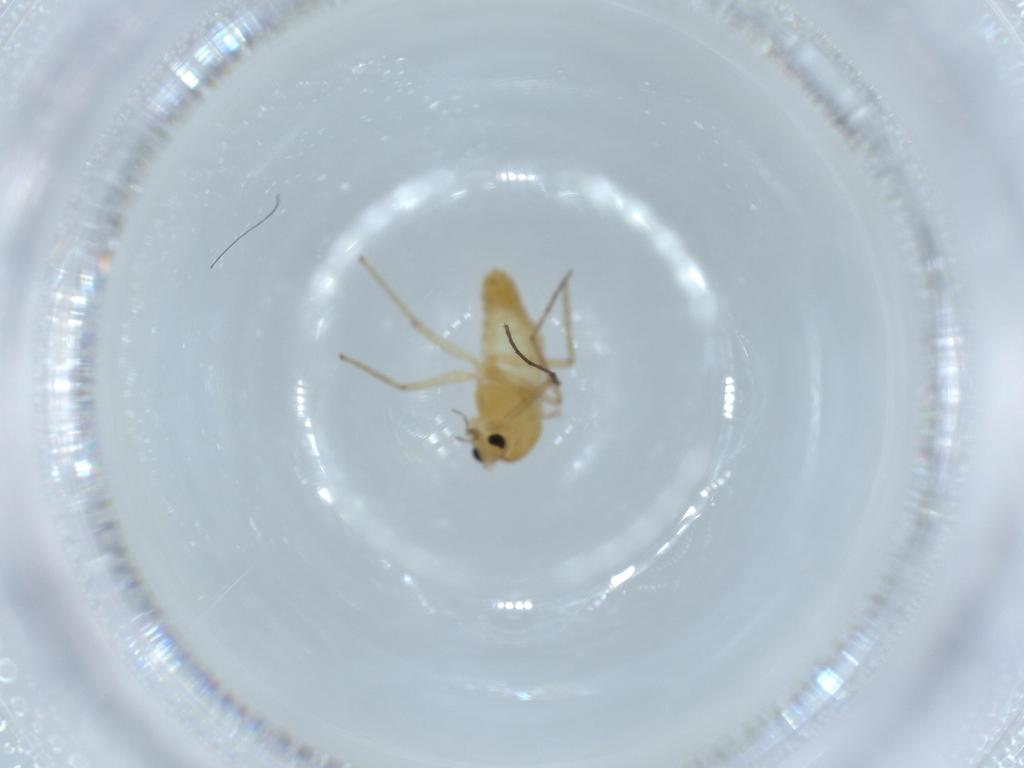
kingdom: Animalia
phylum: Arthropoda
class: Insecta
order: Diptera
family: Chironomidae
